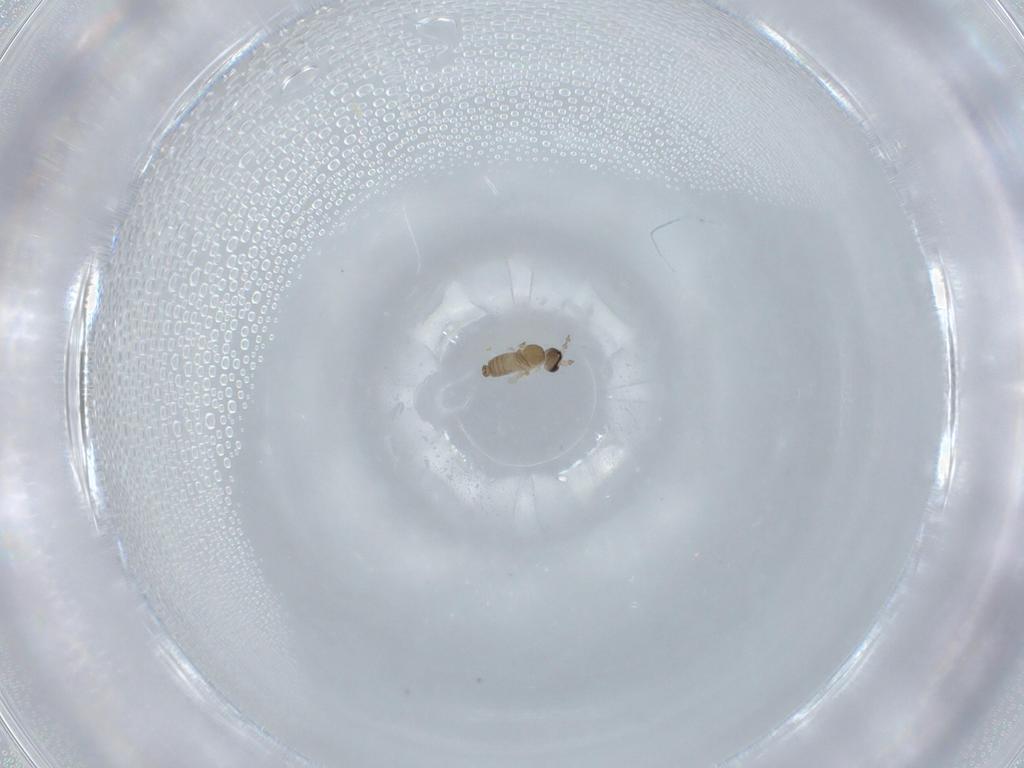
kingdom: Animalia
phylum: Arthropoda
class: Insecta
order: Diptera
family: Cecidomyiidae
